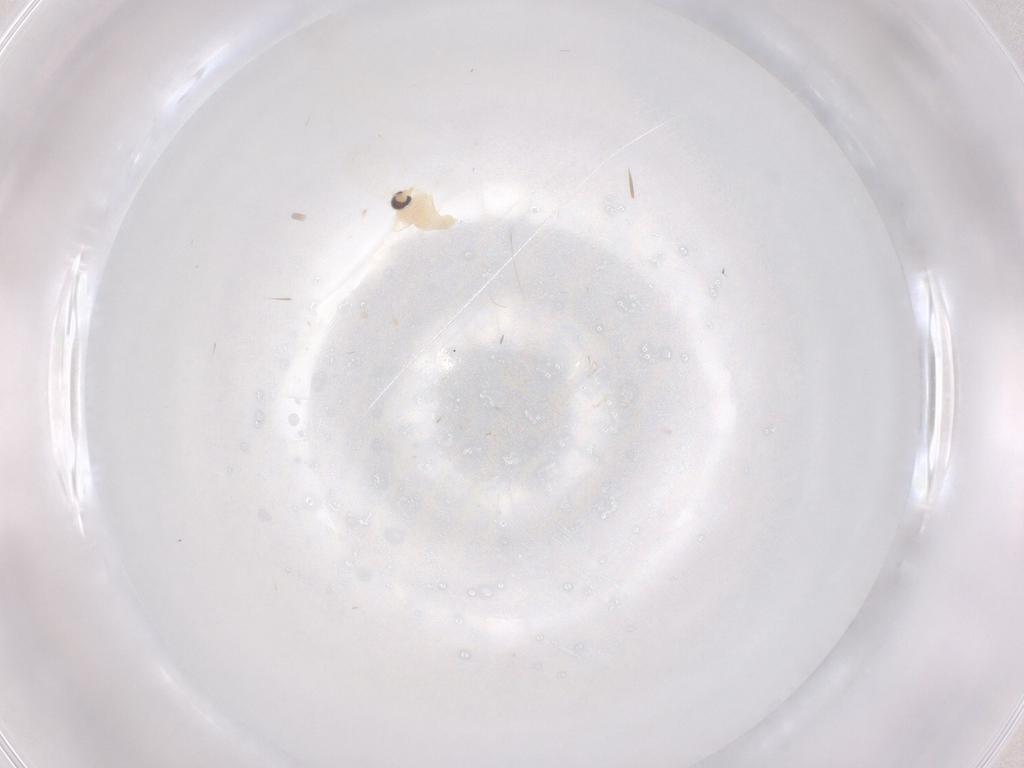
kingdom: Animalia
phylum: Arthropoda
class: Insecta
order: Diptera
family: Cecidomyiidae
